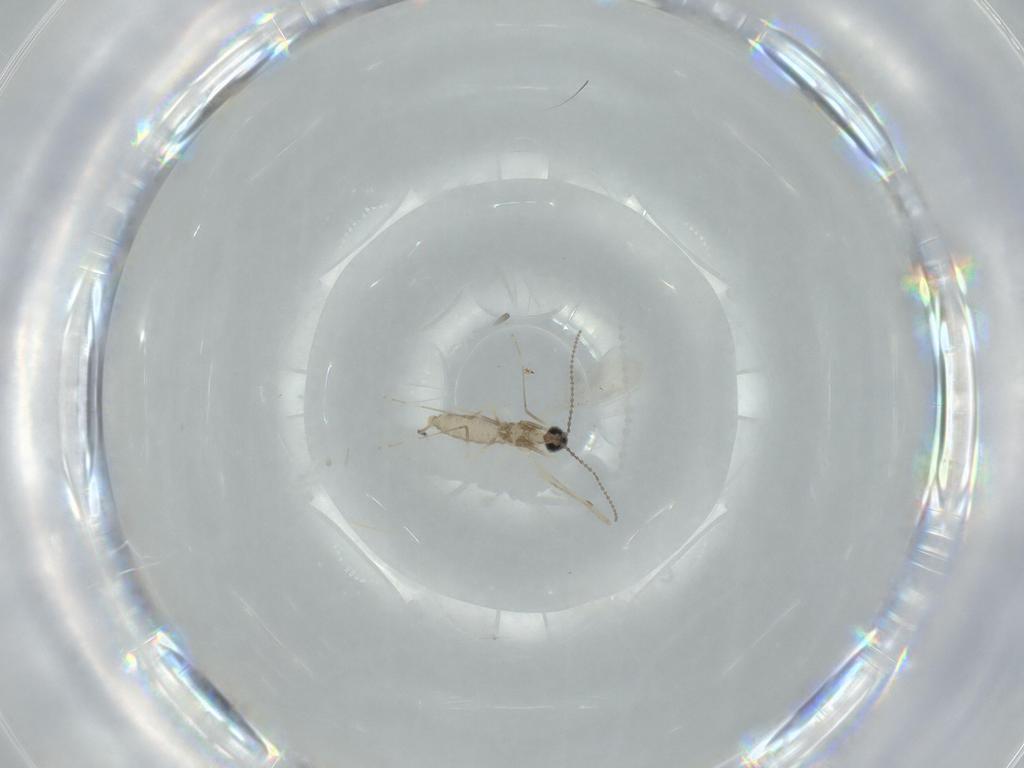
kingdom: Animalia
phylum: Arthropoda
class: Insecta
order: Diptera
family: Cecidomyiidae
